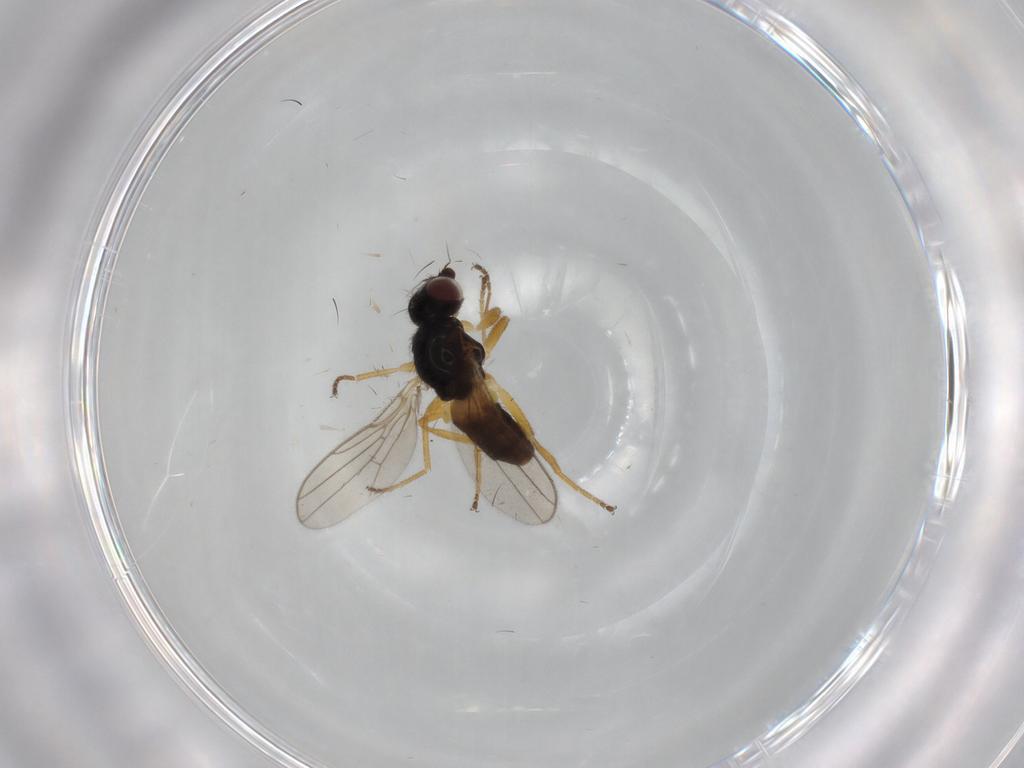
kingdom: Animalia
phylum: Arthropoda
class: Insecta
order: Diptera
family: Chloropidae
